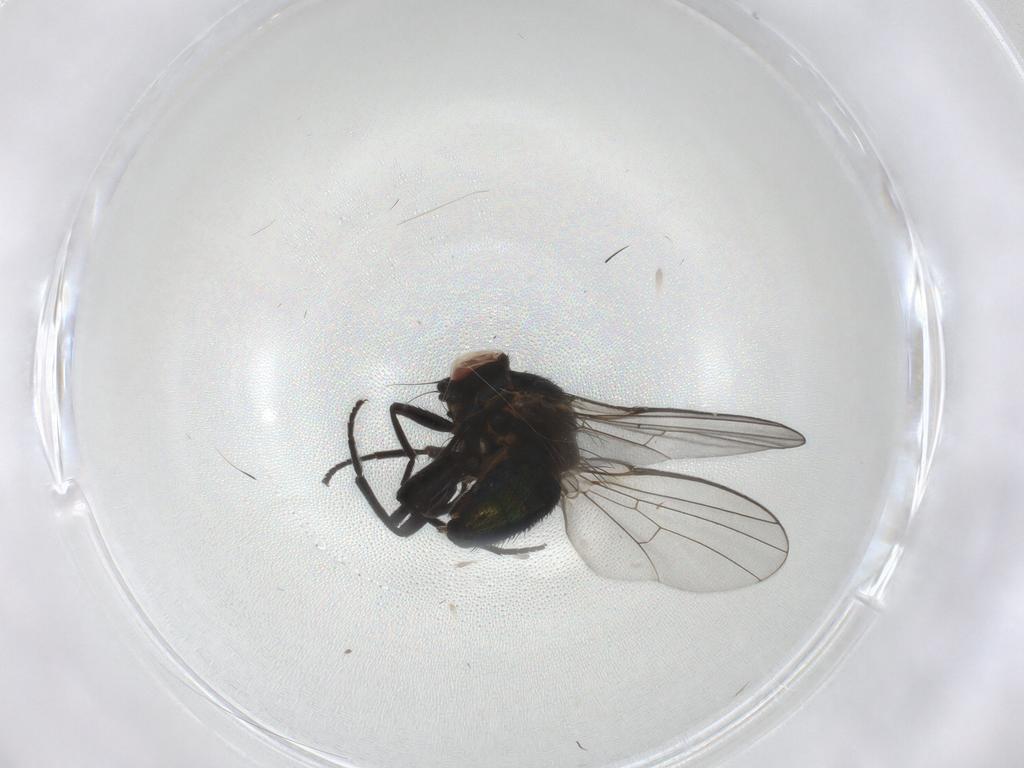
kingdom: Animalia
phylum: Arthropoda
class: Insecta
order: Diptera
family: Agromyzidae
